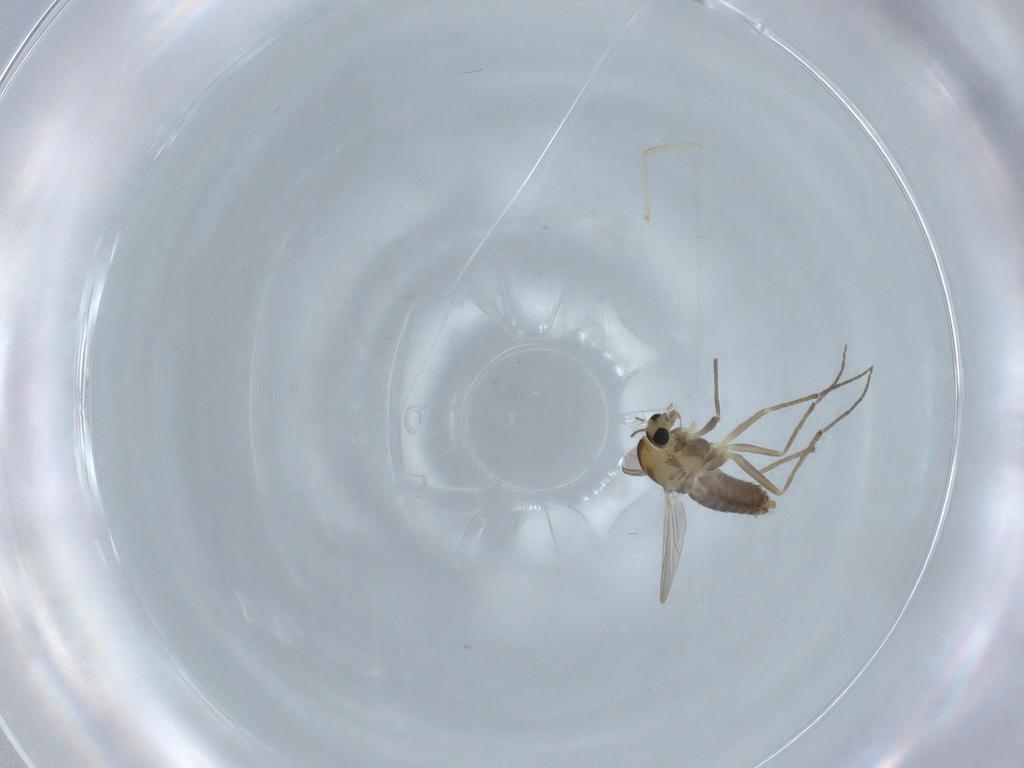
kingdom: Animalia
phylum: Arthropoda
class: Insecta
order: Diptera
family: Chironomidae
